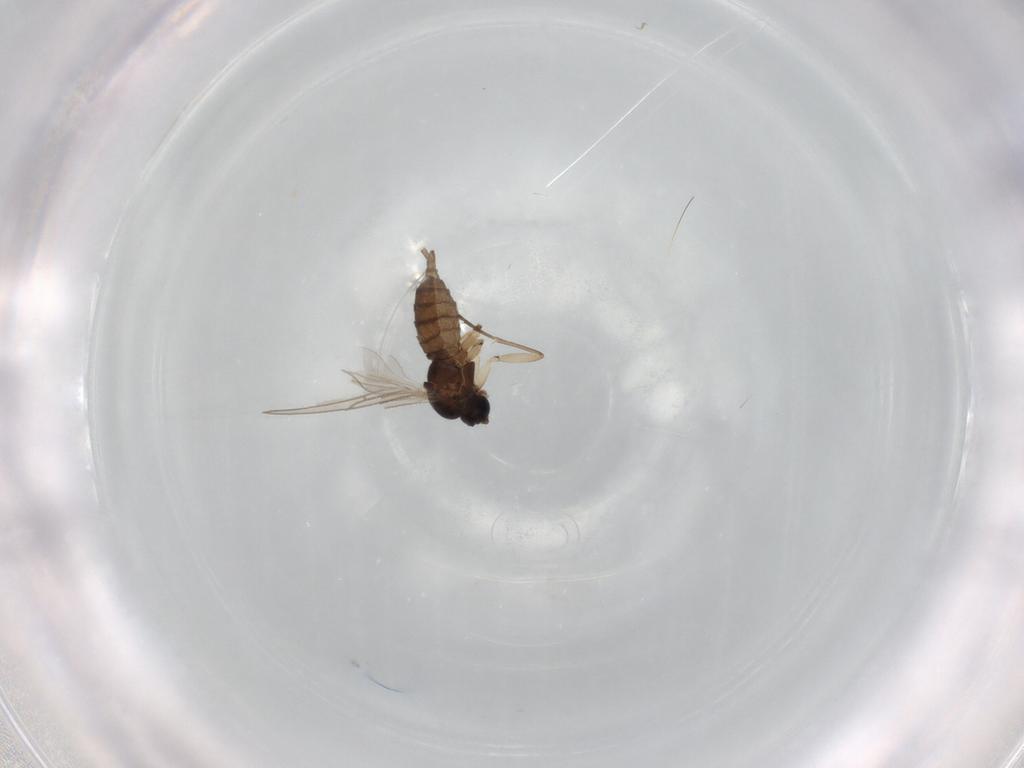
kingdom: Animalia
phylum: Arthropoda
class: Insecta
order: Diptera
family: Sciaridae
